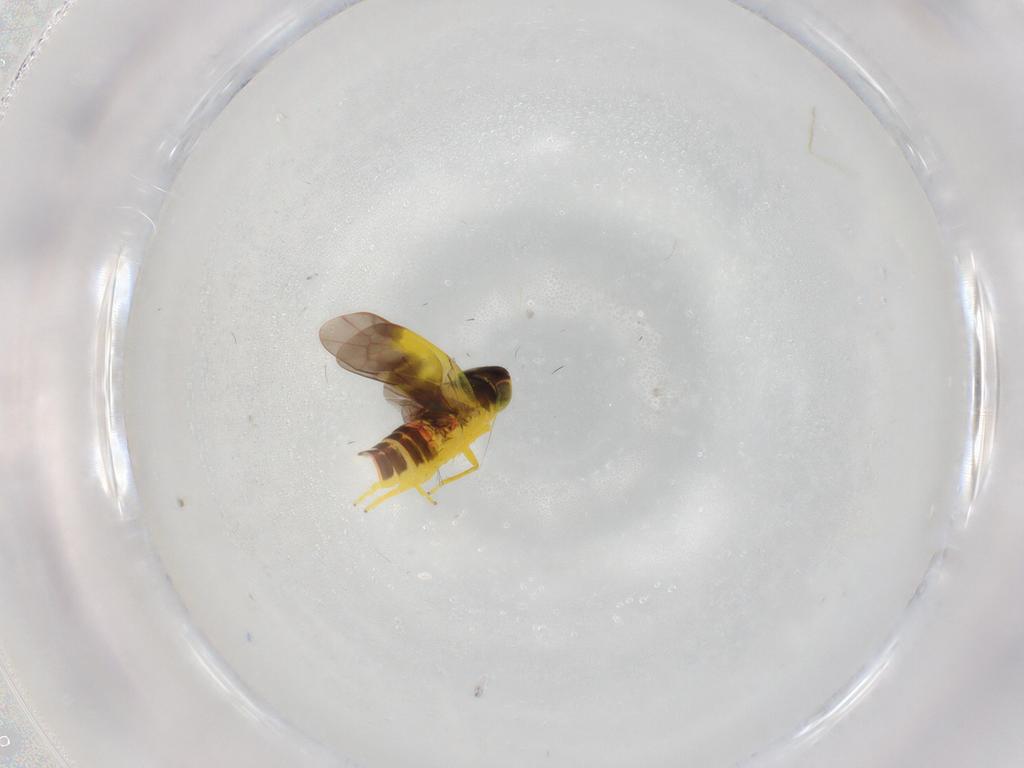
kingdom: Animalia
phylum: Arthropoda
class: Insecta
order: Hemiptera
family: Cicadellidae
